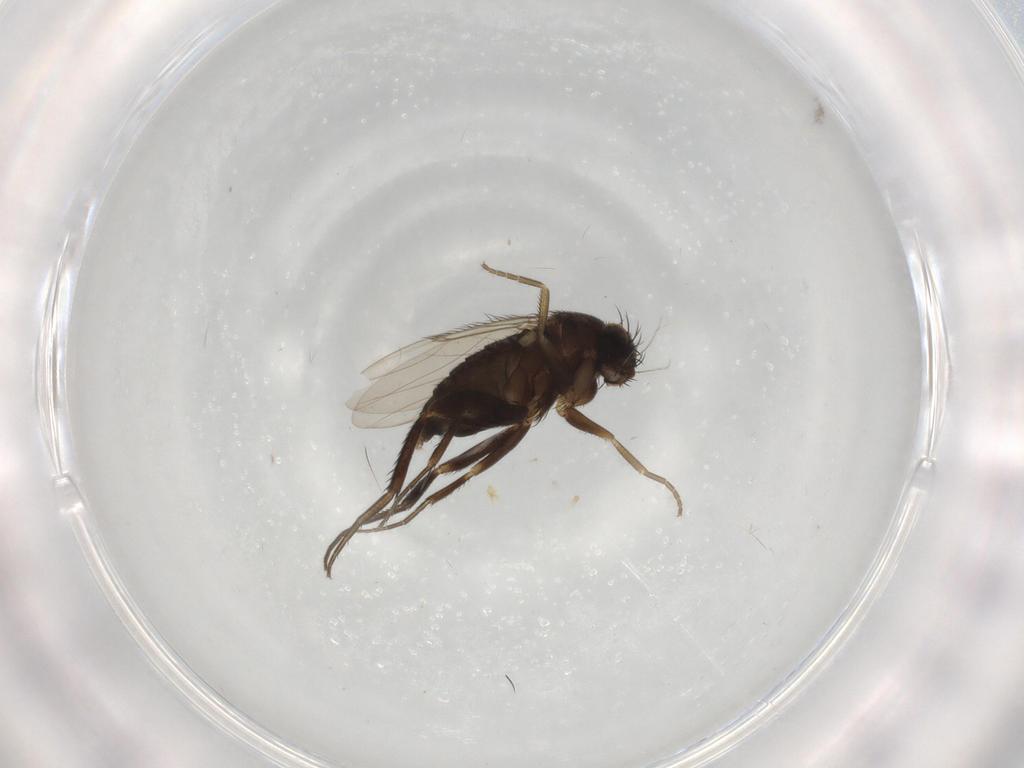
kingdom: Animalia
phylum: Arthropoda
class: Insecta
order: Diptera
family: Phoridae
